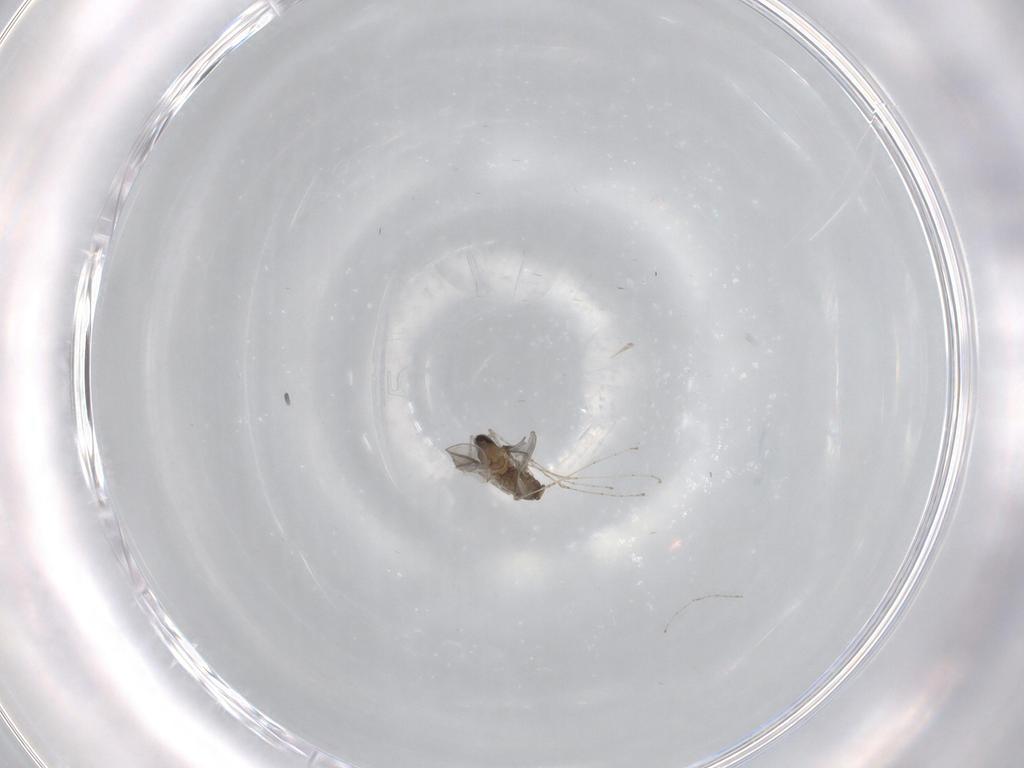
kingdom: Animalia
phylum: Arthropoda
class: Insecta
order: Diptera
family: Cecidomyiidae
